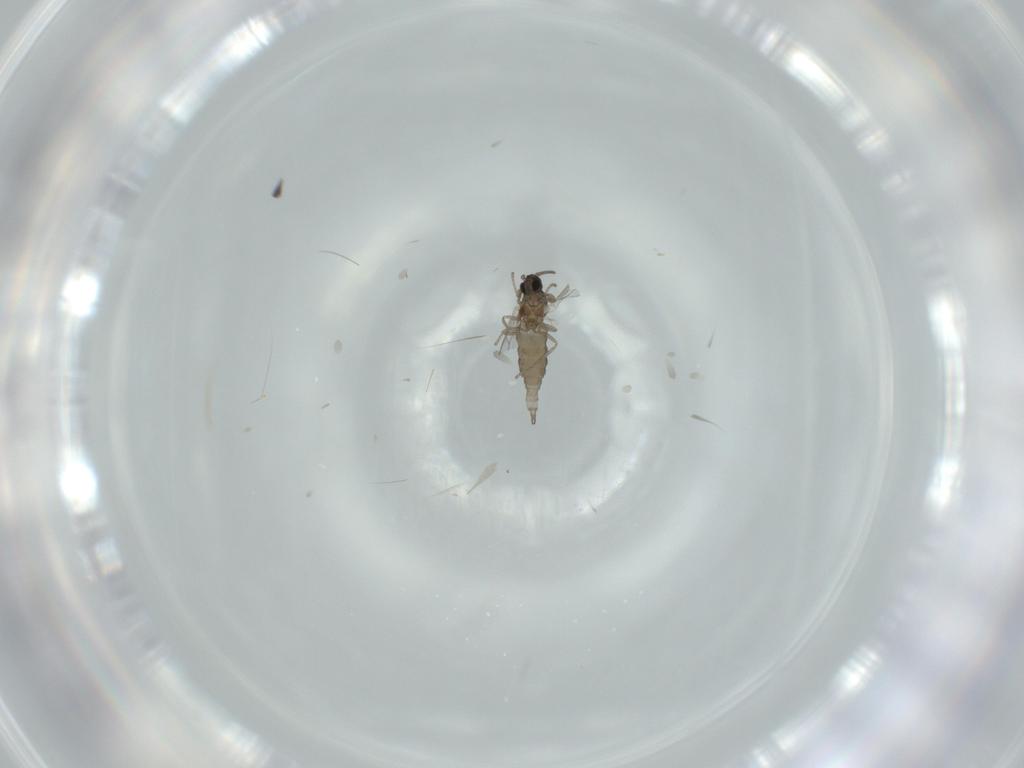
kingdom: Animalia
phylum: Arthropoda
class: Insecta
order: Diptera
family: Cecidomyiidae
